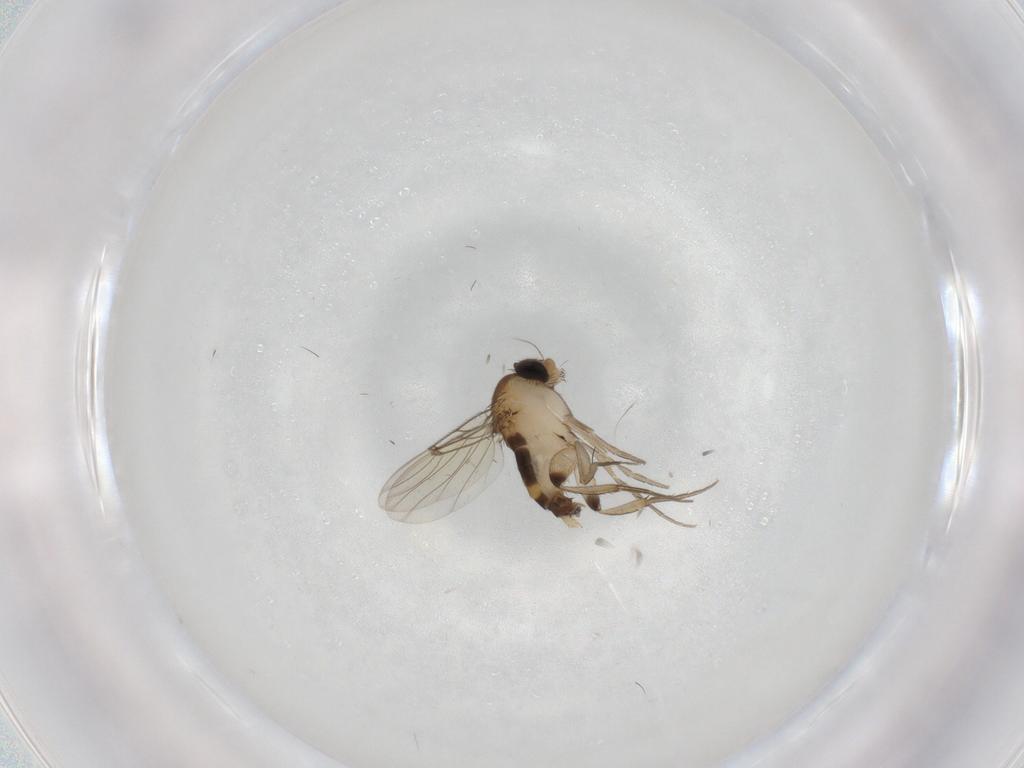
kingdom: Animalia
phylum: Arthropoda
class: Insecta
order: Diptera
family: Phoridae
